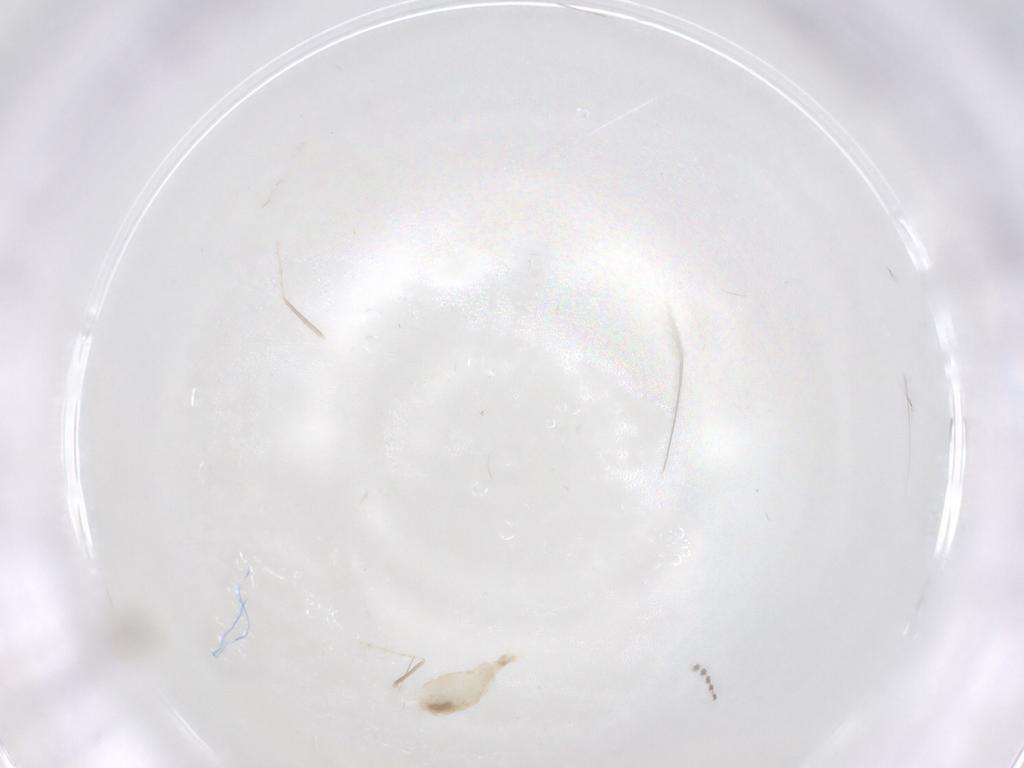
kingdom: Animalia
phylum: Arthropoda
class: Insecta
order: Diptera
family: Cecidomyiidae
